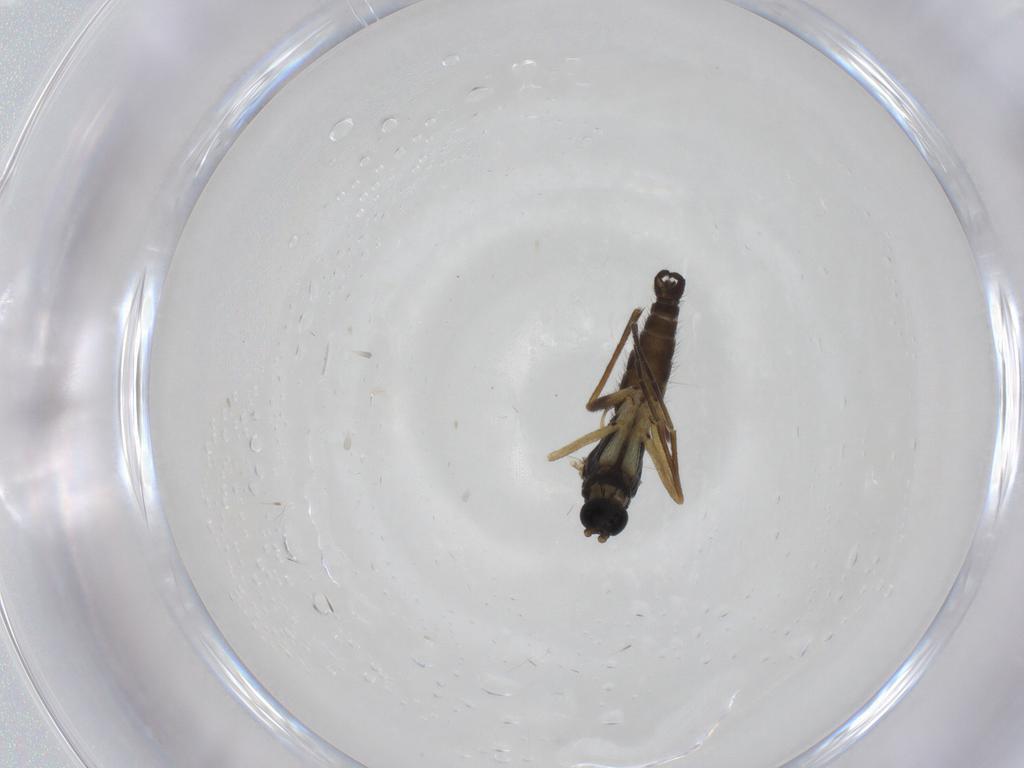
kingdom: Animalia
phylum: Arthropoda
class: Insecta
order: Diptera
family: Sciaridae
